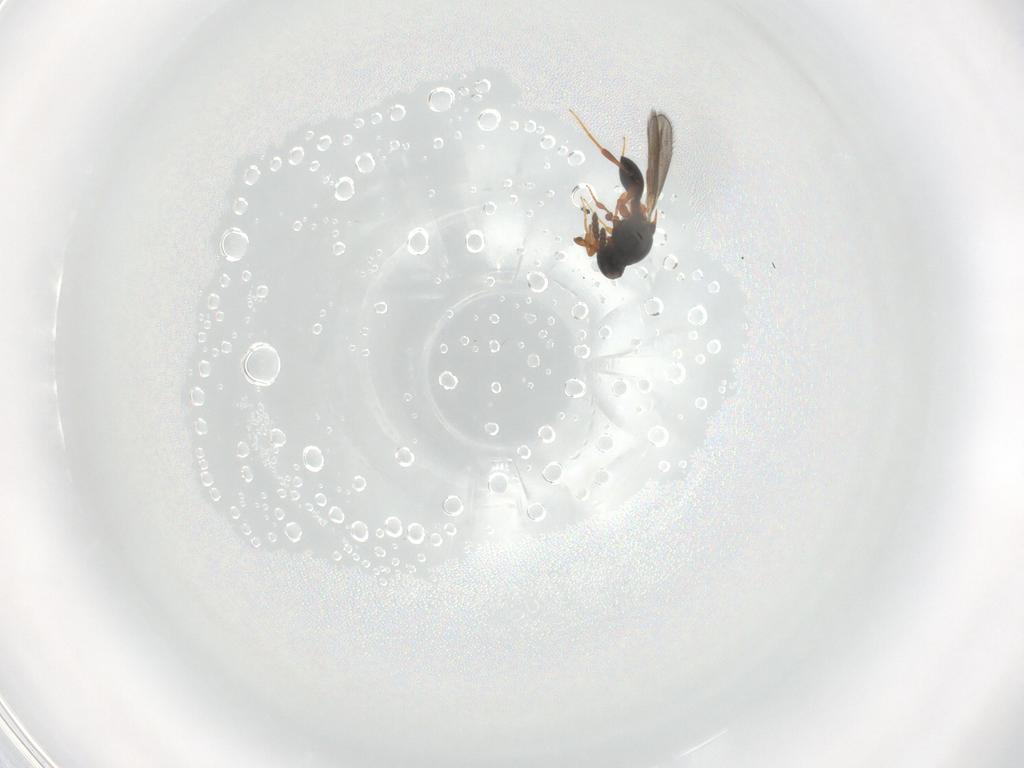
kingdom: Animalia
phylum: Arthropoda
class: Insecta
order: Hymenoptera
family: Platygastridae
